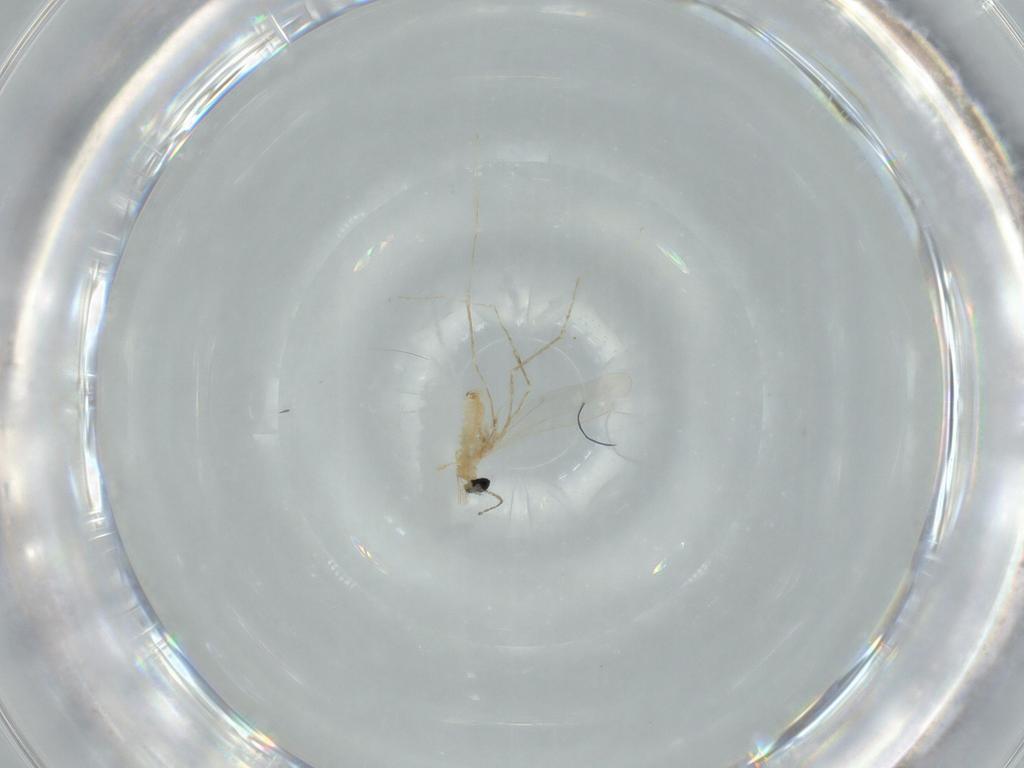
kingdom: Animalia
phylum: Arthropoda
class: Insecta
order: Diptera
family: Cecidomyiidae
